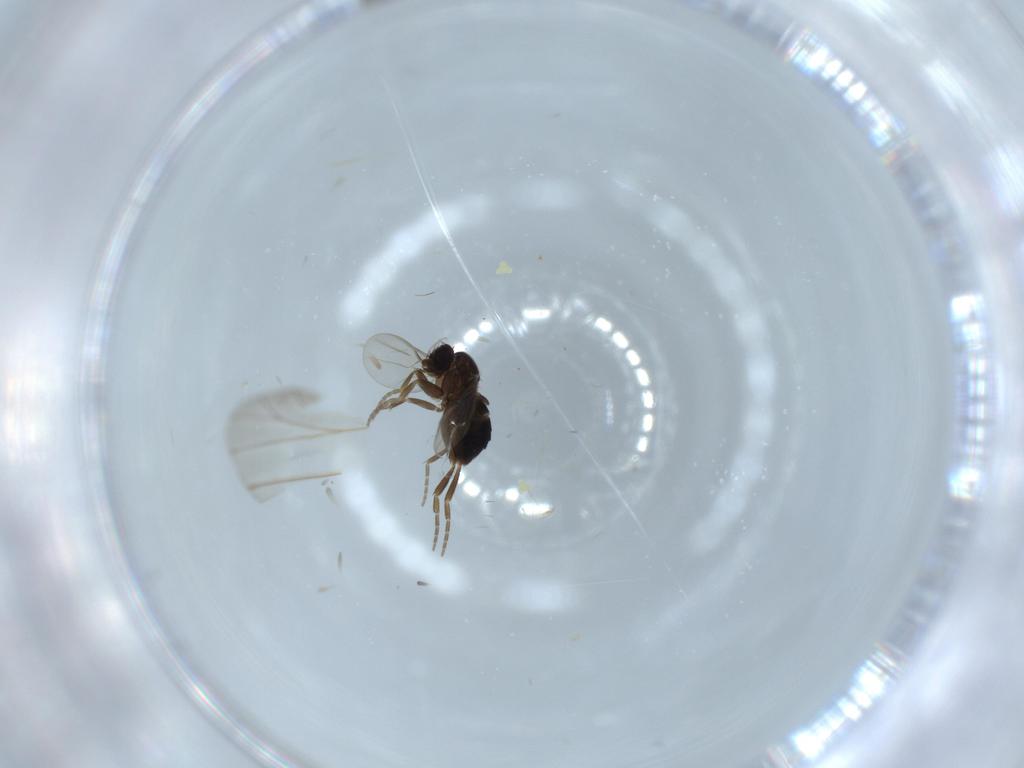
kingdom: Animalia
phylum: Arthropoda
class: Insecta
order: Diptera
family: Phoridae
